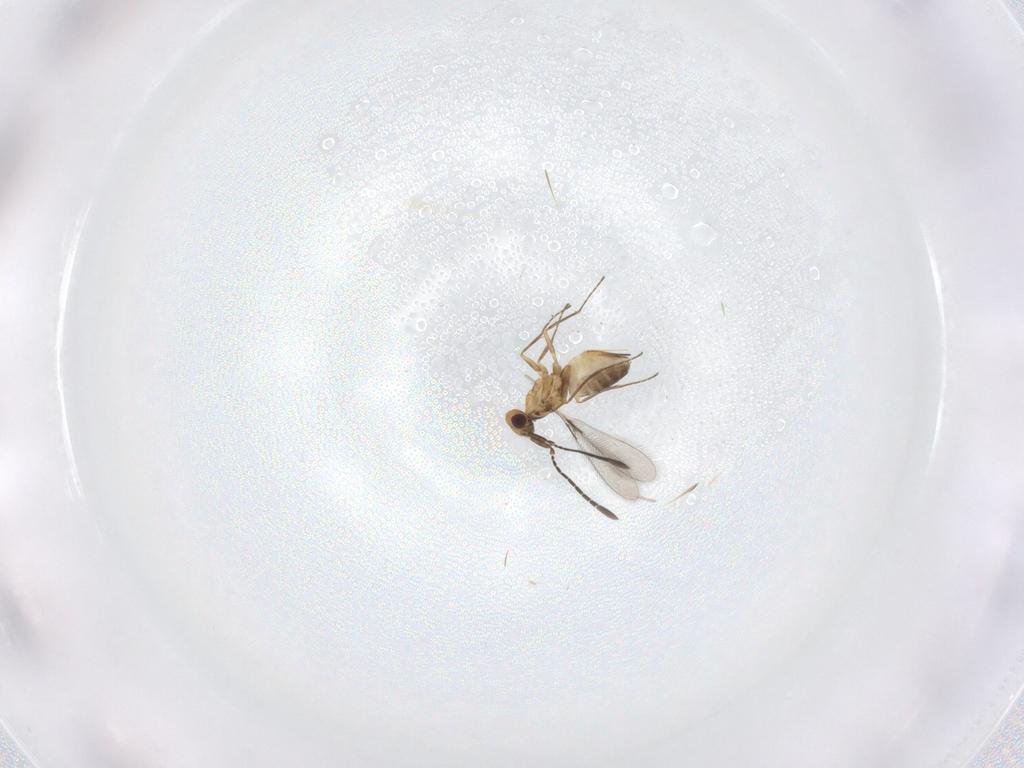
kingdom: Animalia
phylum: Arthropoda
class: Insecta
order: Hymenoptera
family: Mymaridae
